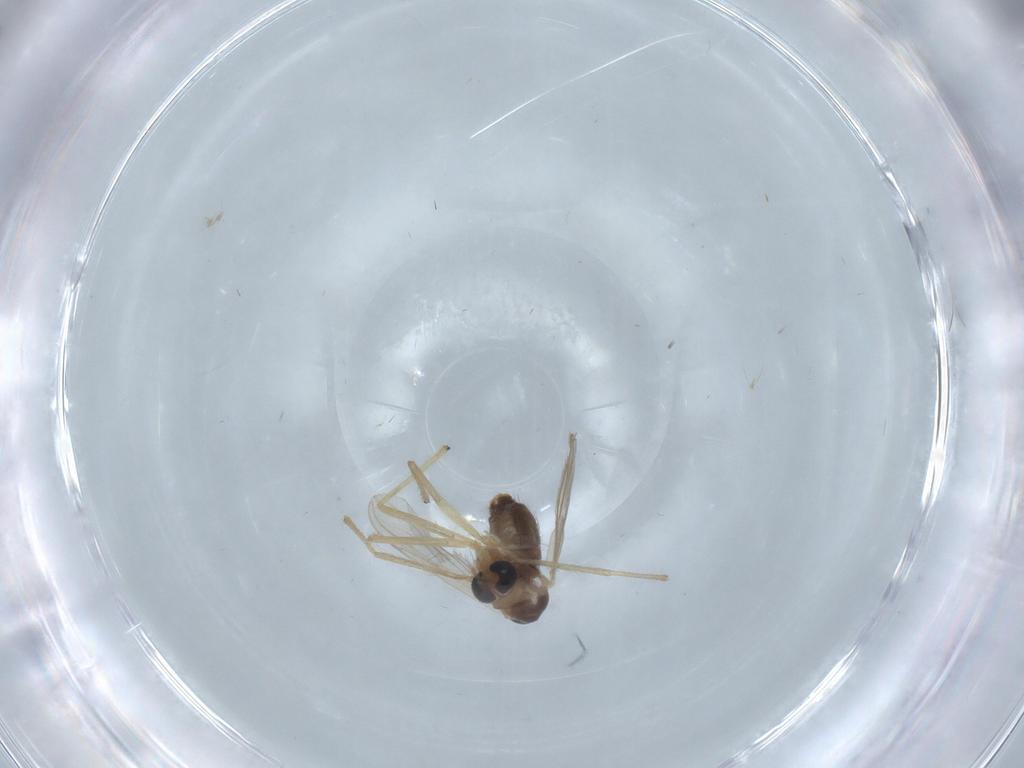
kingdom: Animalia
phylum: Arthropoda
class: Insecta
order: Diptera
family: Chironomidae
